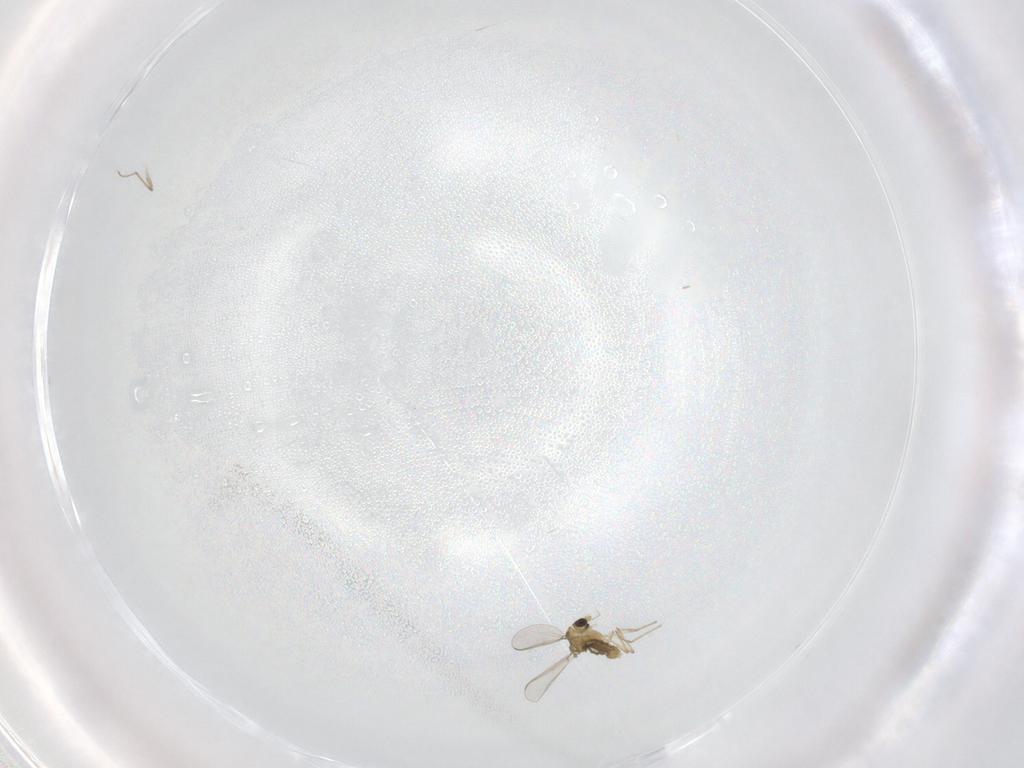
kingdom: Animalia
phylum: Arthropoda
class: Insecta
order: Diptera
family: Chironomidae
